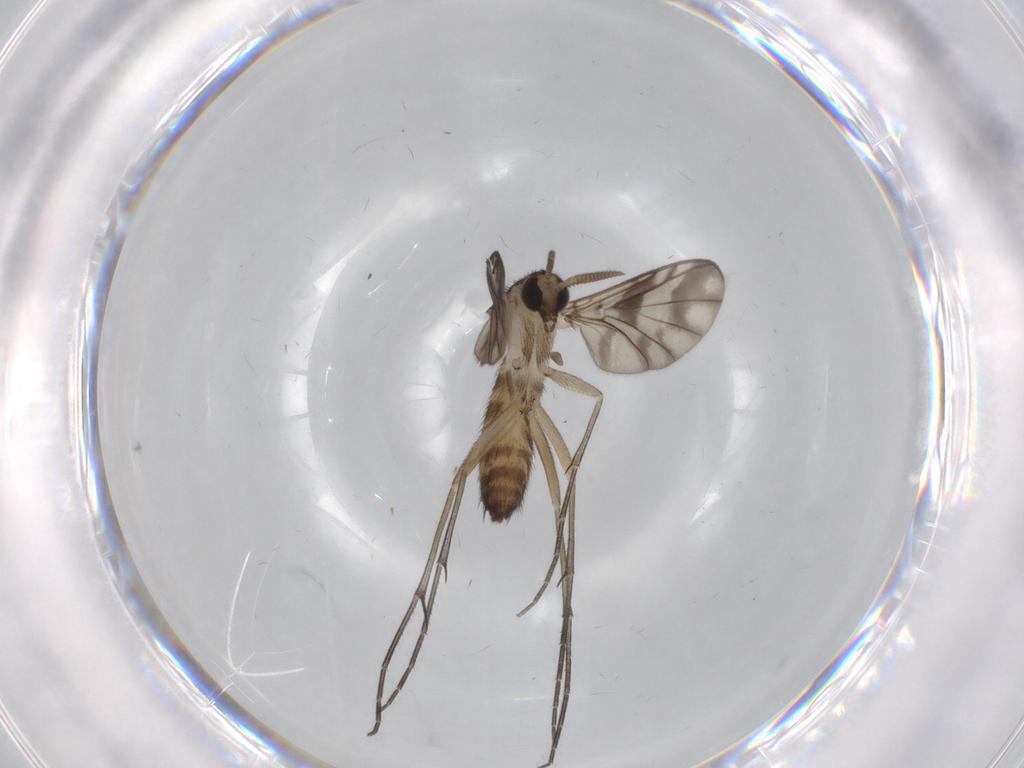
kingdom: Animalia
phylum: Arthropoda
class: Insecta
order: Diptera
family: Keroplatidae
